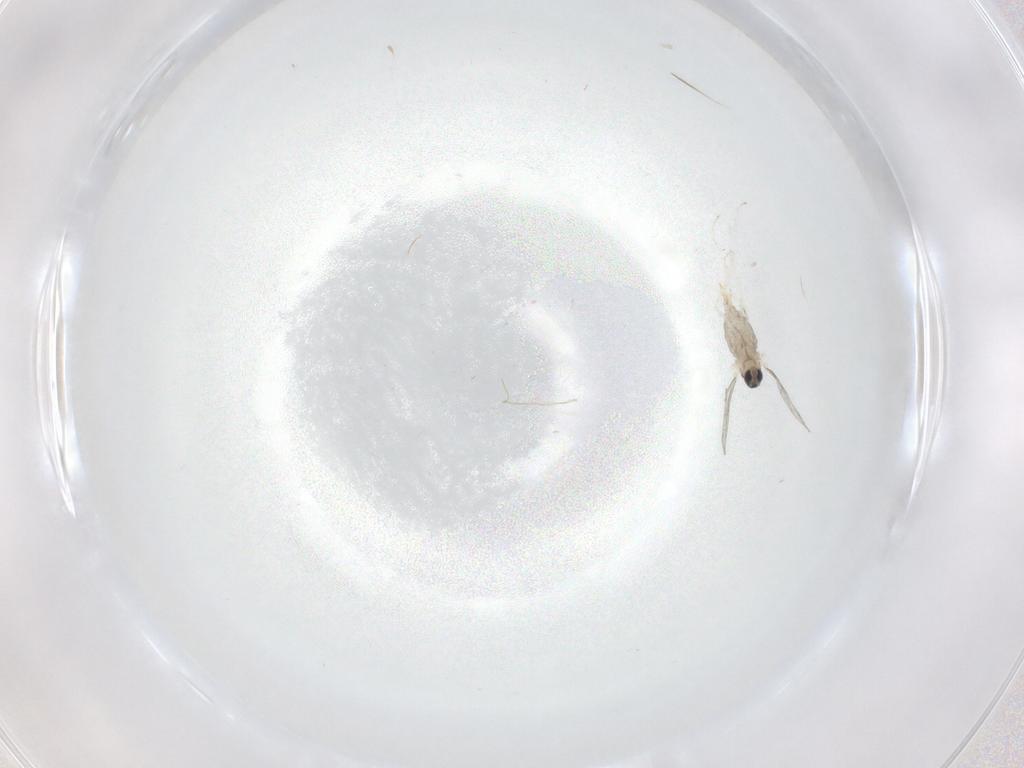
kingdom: Animalia
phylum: Arthropoda
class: Insecta
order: Diptera
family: Cecidomyiidae
